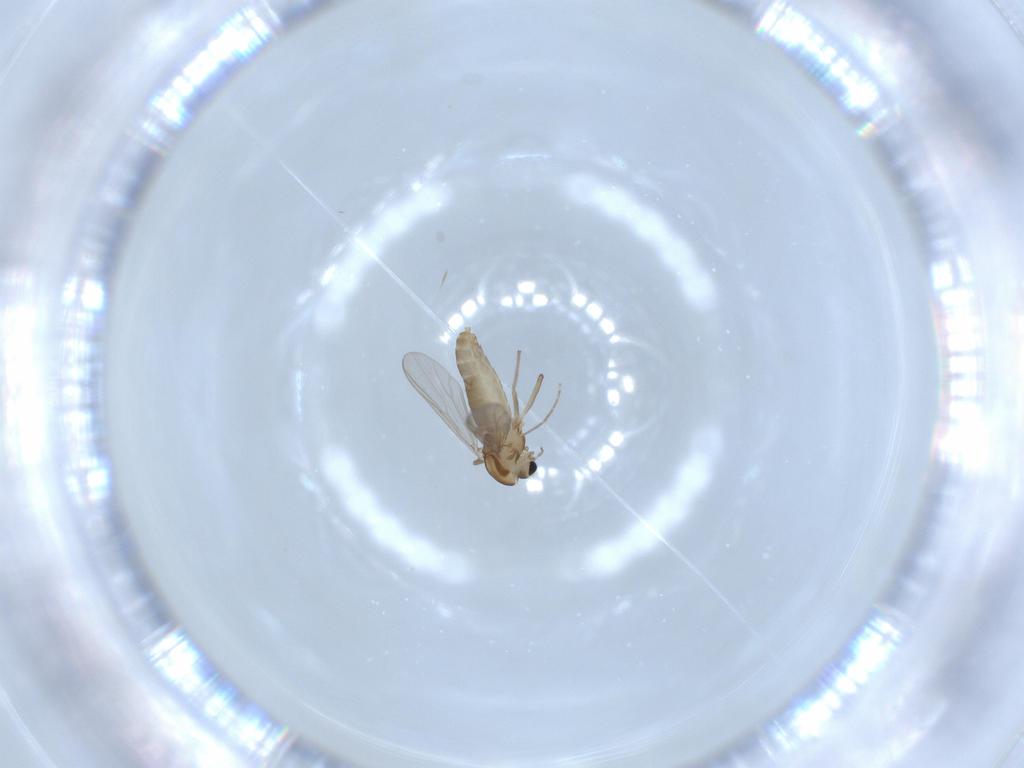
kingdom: Animalia
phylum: Arthropoda
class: Insecta
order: Diptera
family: Chironomidae
